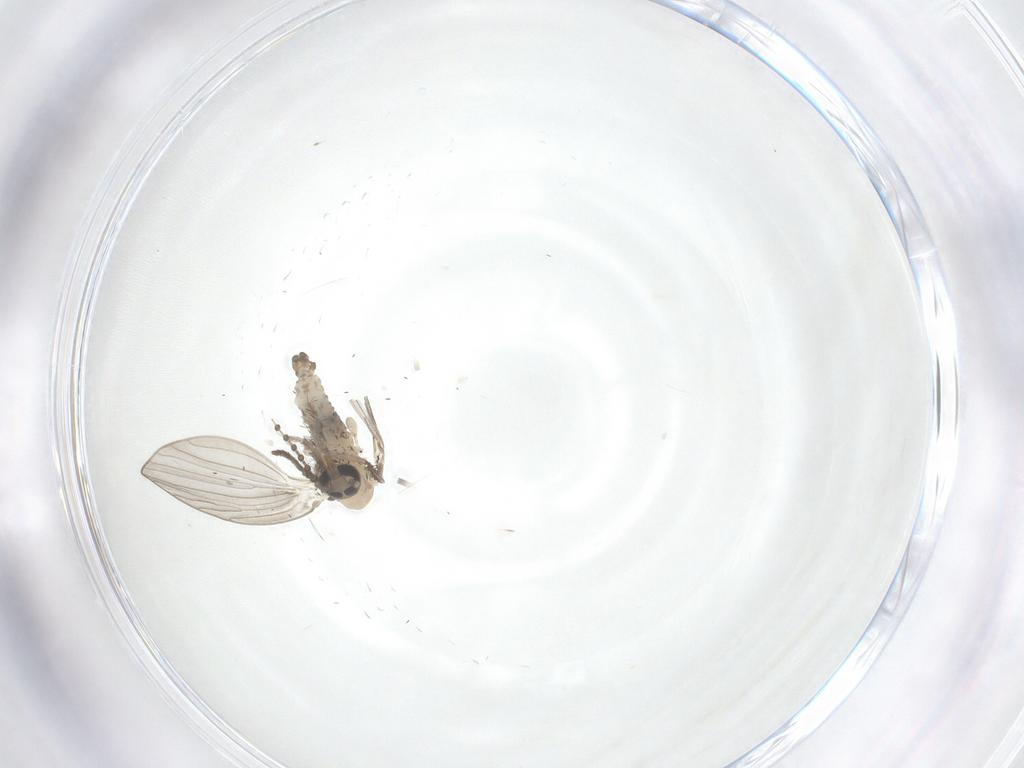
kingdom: Animalia
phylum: Arthropoda
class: Insecta
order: Diptera
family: Psychodidae
